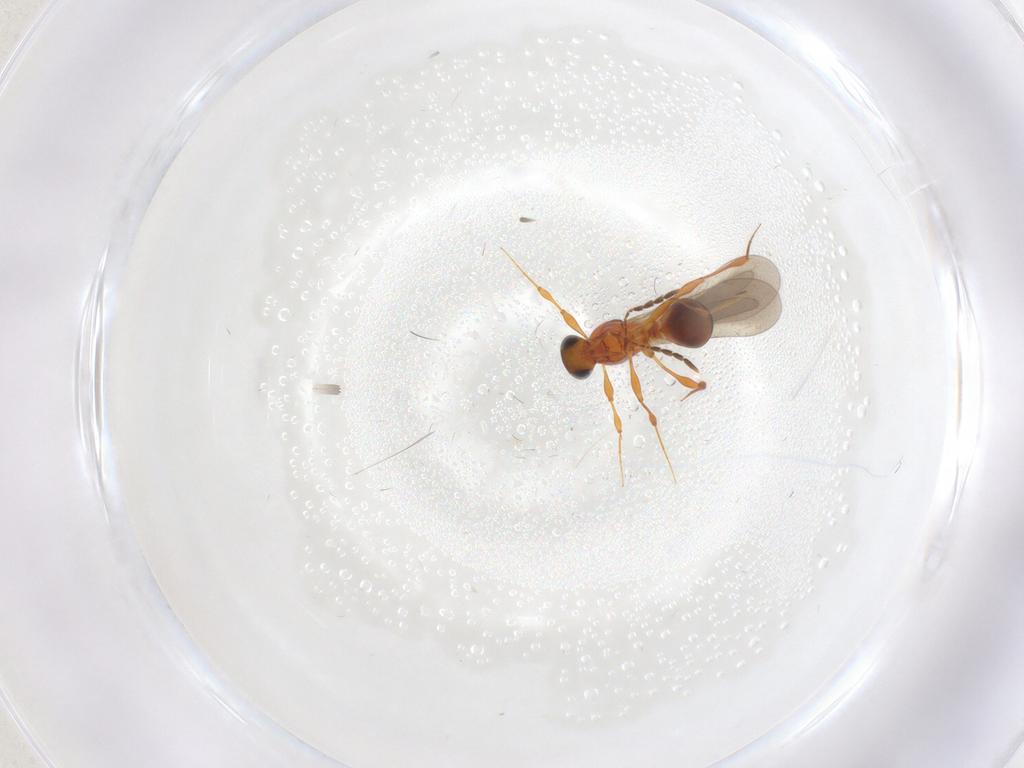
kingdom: Animalia
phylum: Arthropoda
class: Insecta
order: Hymenoptera
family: Platygastridae
